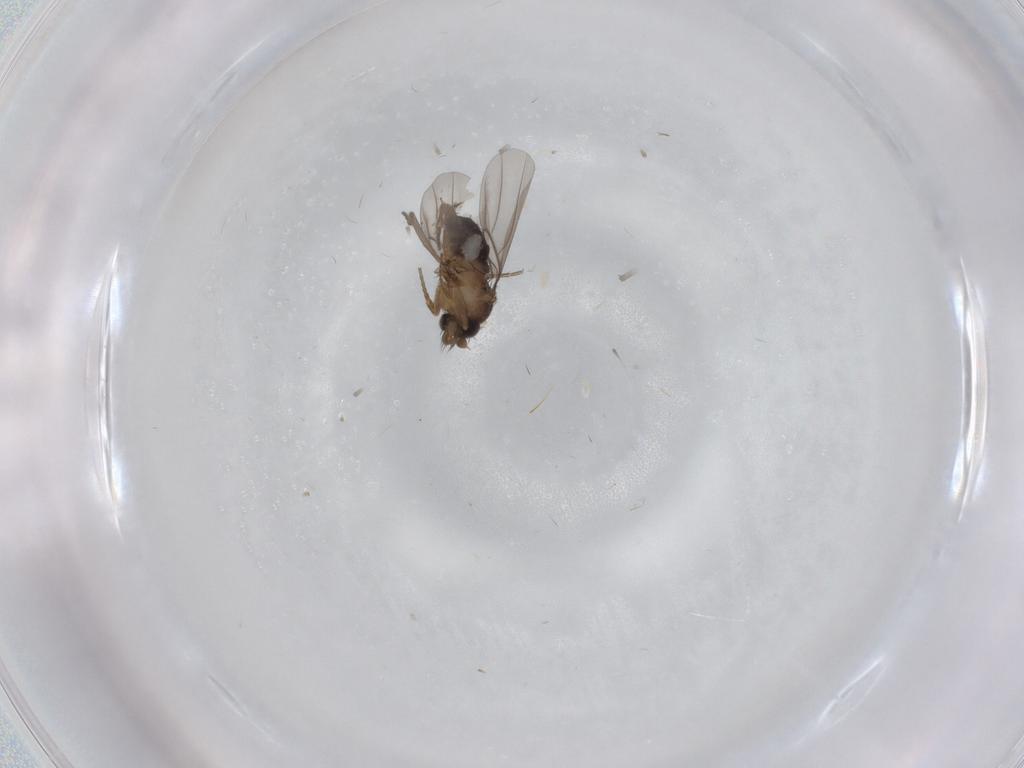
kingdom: Animalia
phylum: Arthropoda
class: Insecta
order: Diptera
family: Cecidomyiidae
